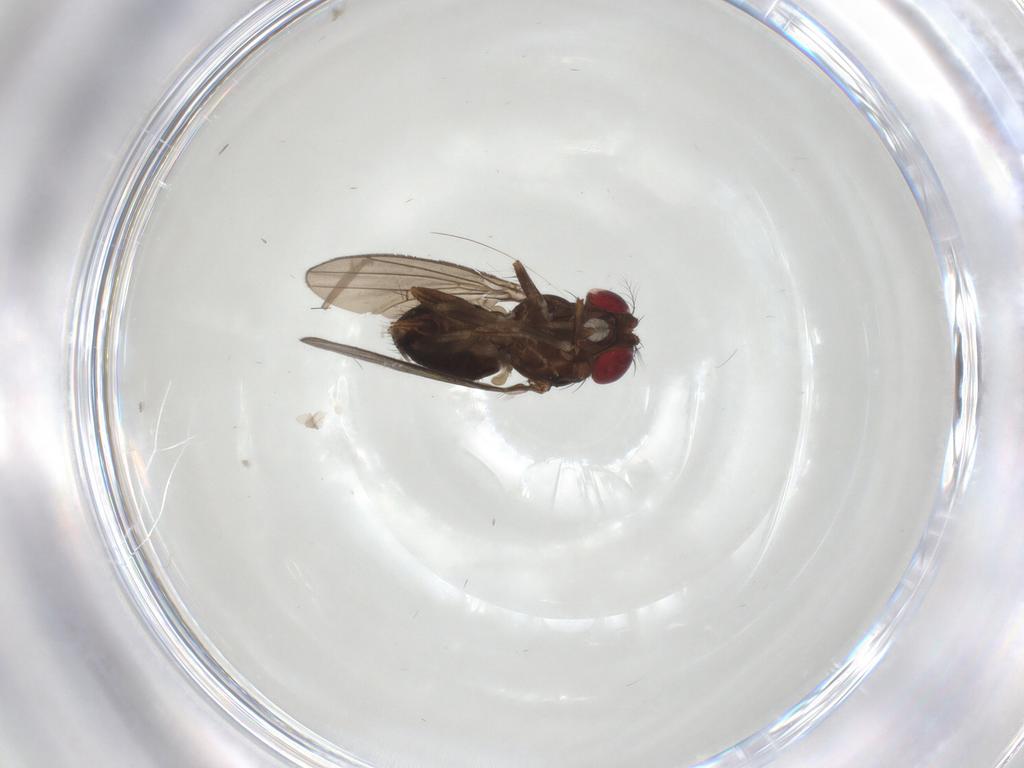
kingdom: Animalia
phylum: Arthropoda
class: Insecta
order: Diptera
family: Drosophilidae
